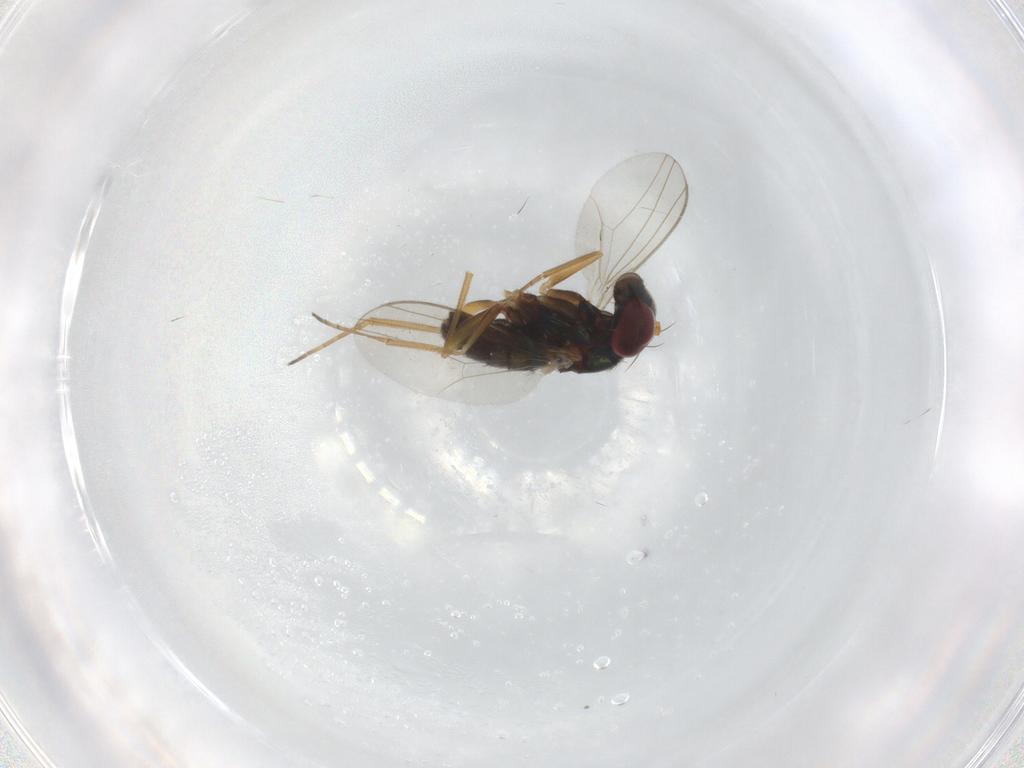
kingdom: Animalia
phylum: Arthropoda
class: Insecta
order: Diptera
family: Dolichopodidae
